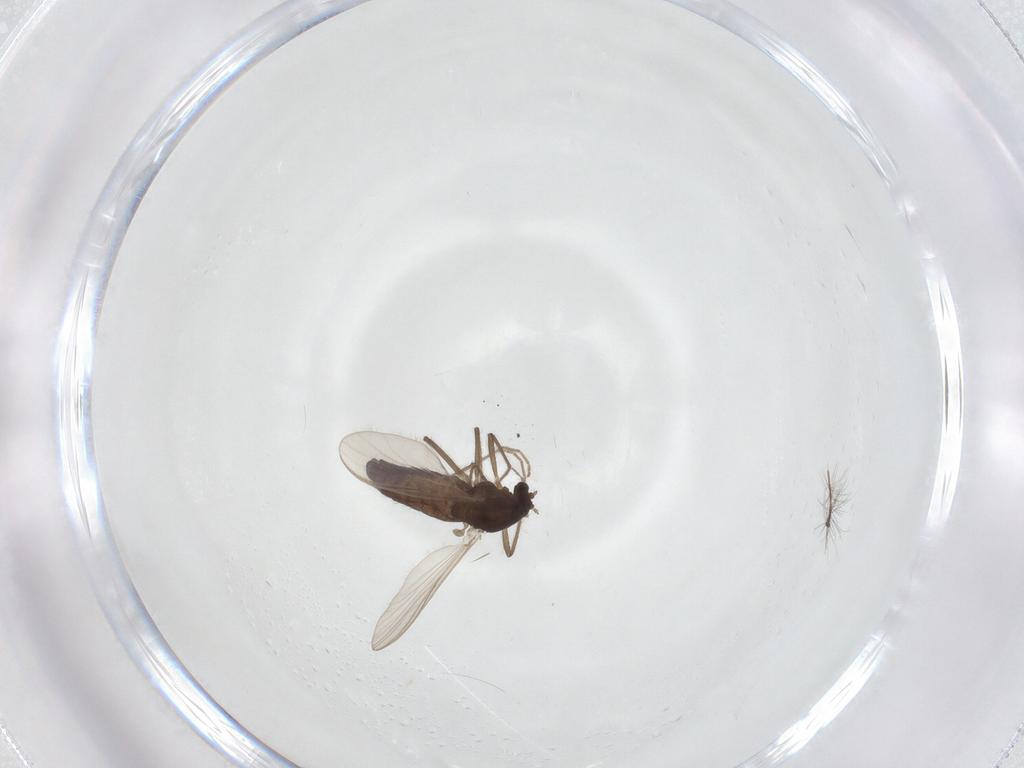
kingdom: Animalia
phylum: Arthropoda
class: Insecta
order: Diptera
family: Chironomidae
